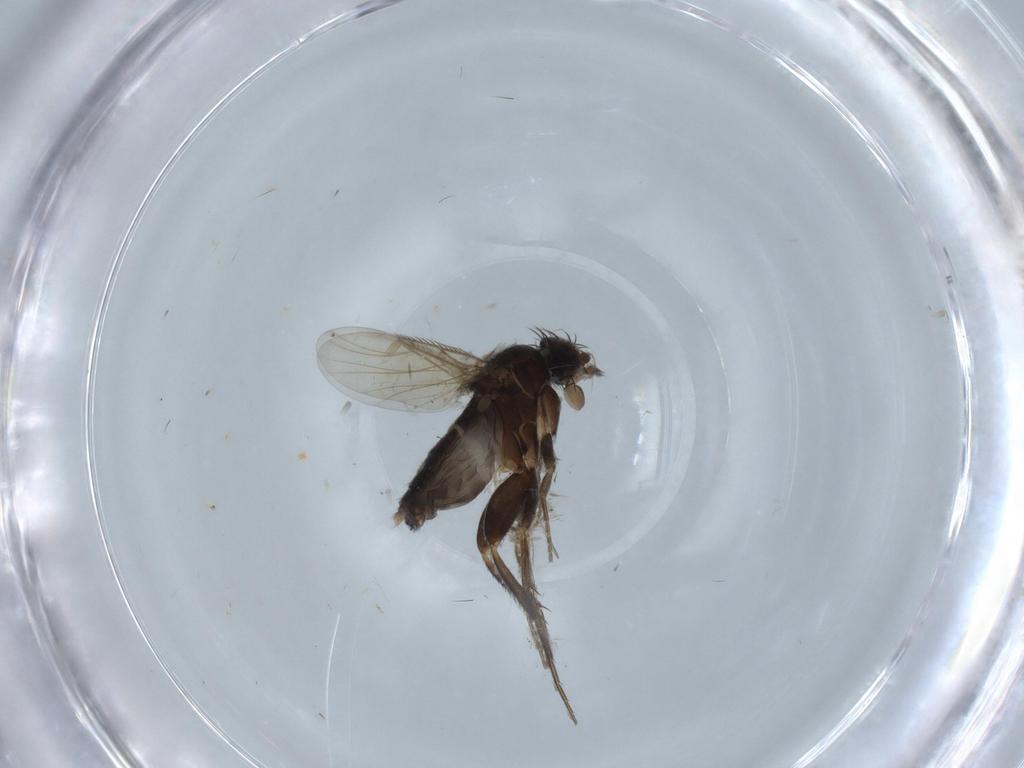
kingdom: Animalia
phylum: Arthropoda
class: Insecta
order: Diptera
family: Phoridae
